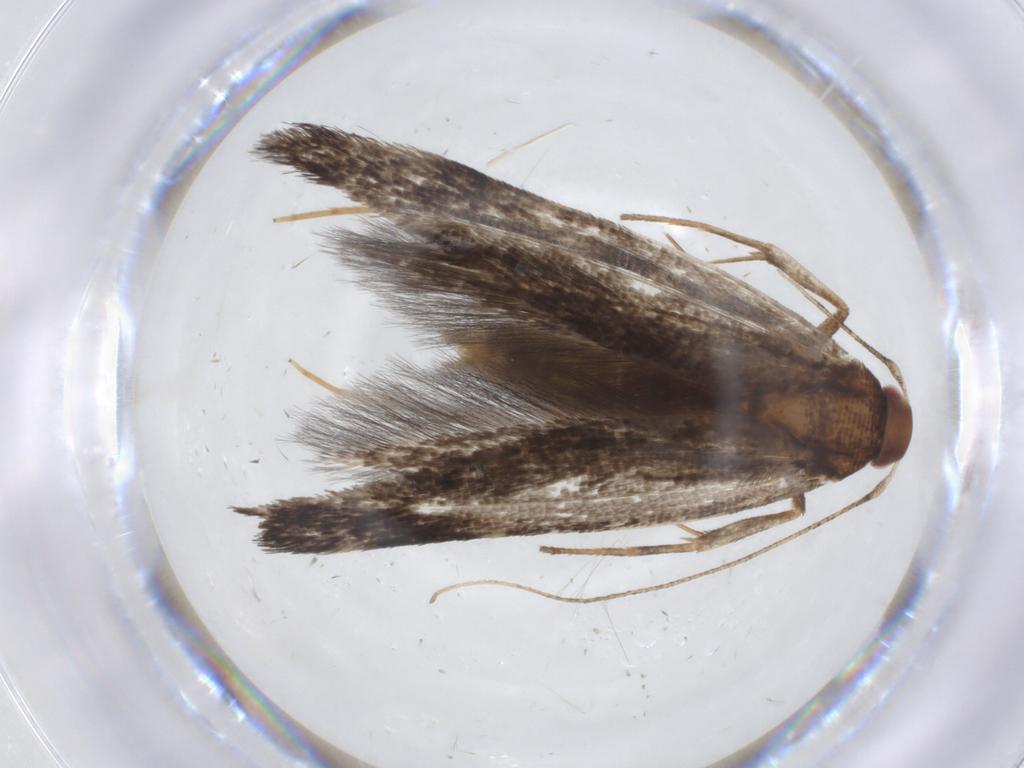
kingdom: Animalia
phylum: Arthropoda
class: Insecta
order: Lepidoptera
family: Cosmopterigidae
